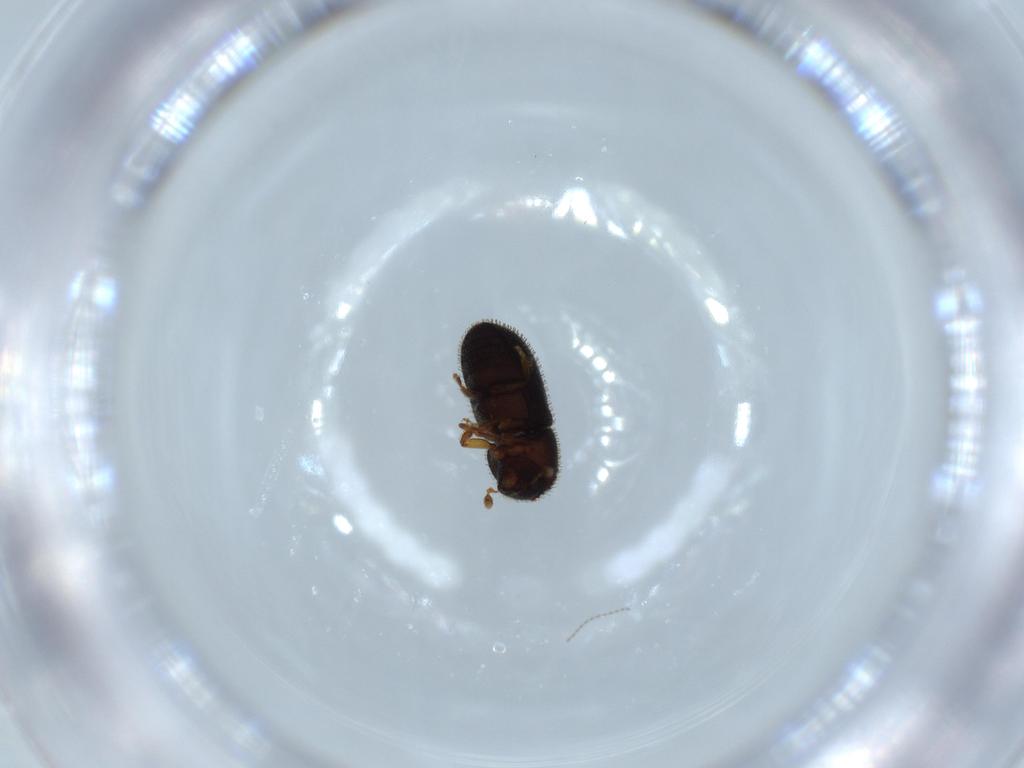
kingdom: Animalia
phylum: Arthropoda
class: Insecta
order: Coleoptera
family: Curculionidae
